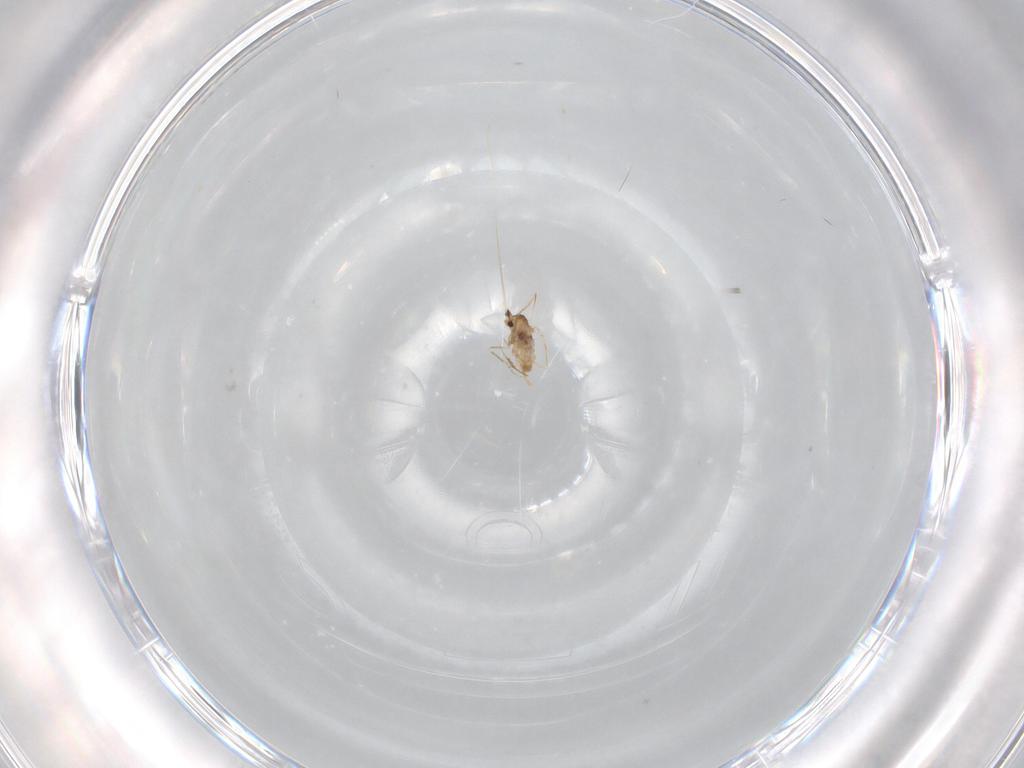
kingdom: Animalia
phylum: Arthropoda
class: Insecta
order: Diptera
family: Cecidomyiidae
